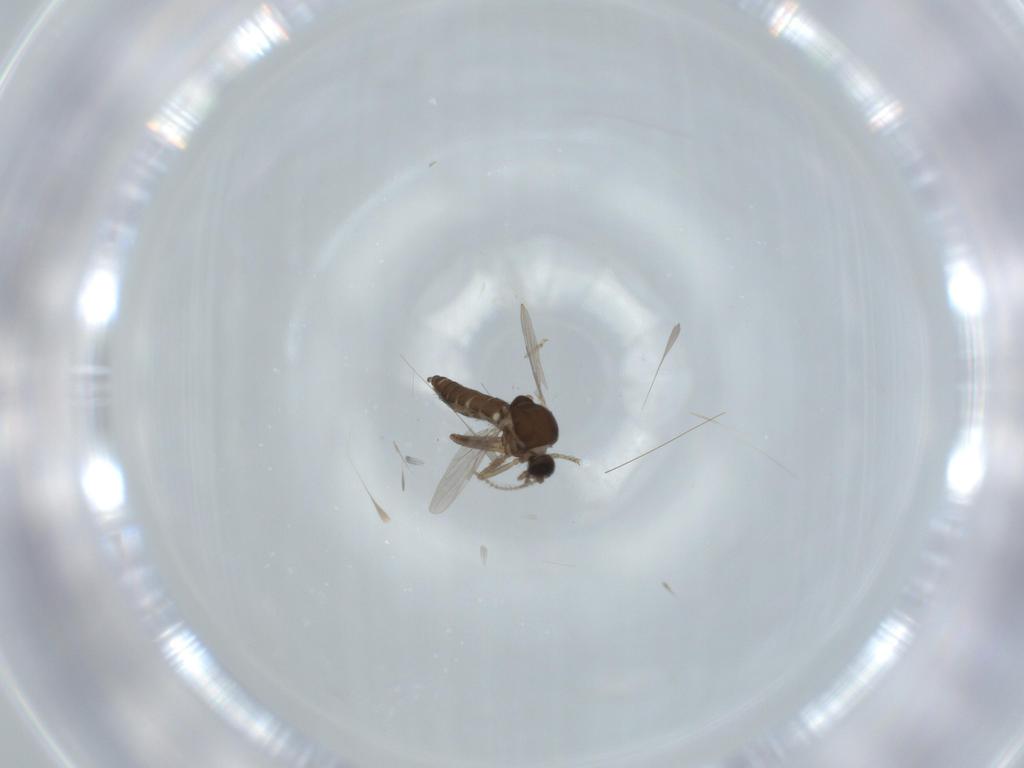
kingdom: Animalia
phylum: Arthropoda
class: Insecta
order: Diptera
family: Ceratopogonidae
